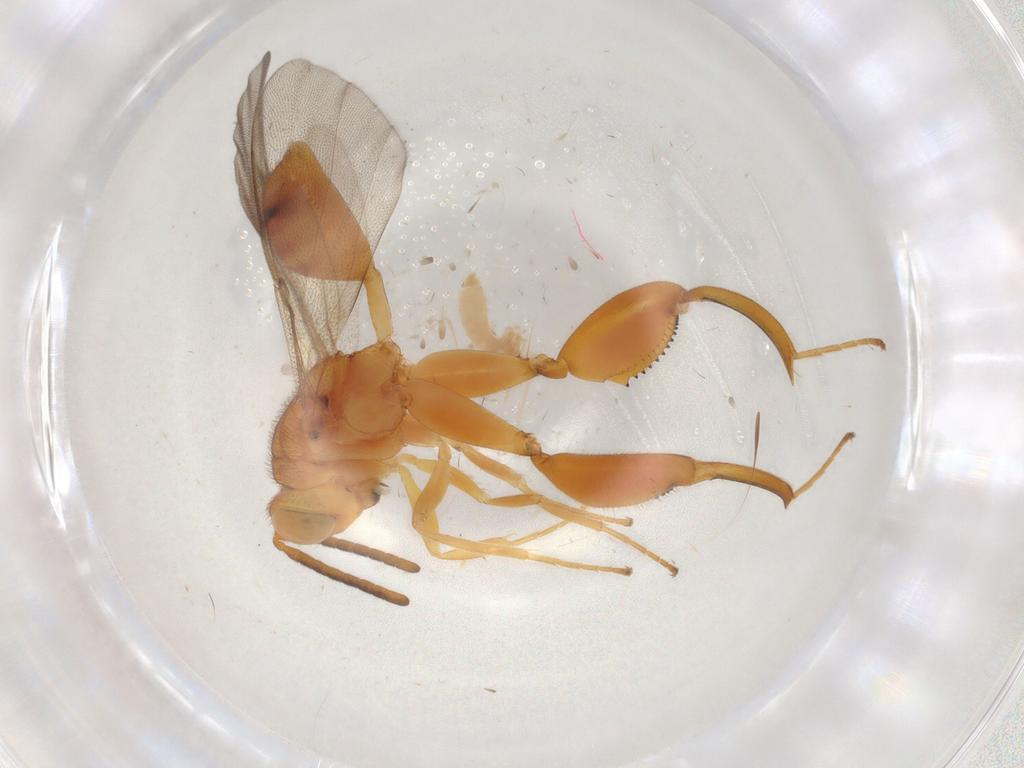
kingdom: Animalia
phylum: Arthropoda
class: Insecta
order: Hymenoptera
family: Chalcididae
